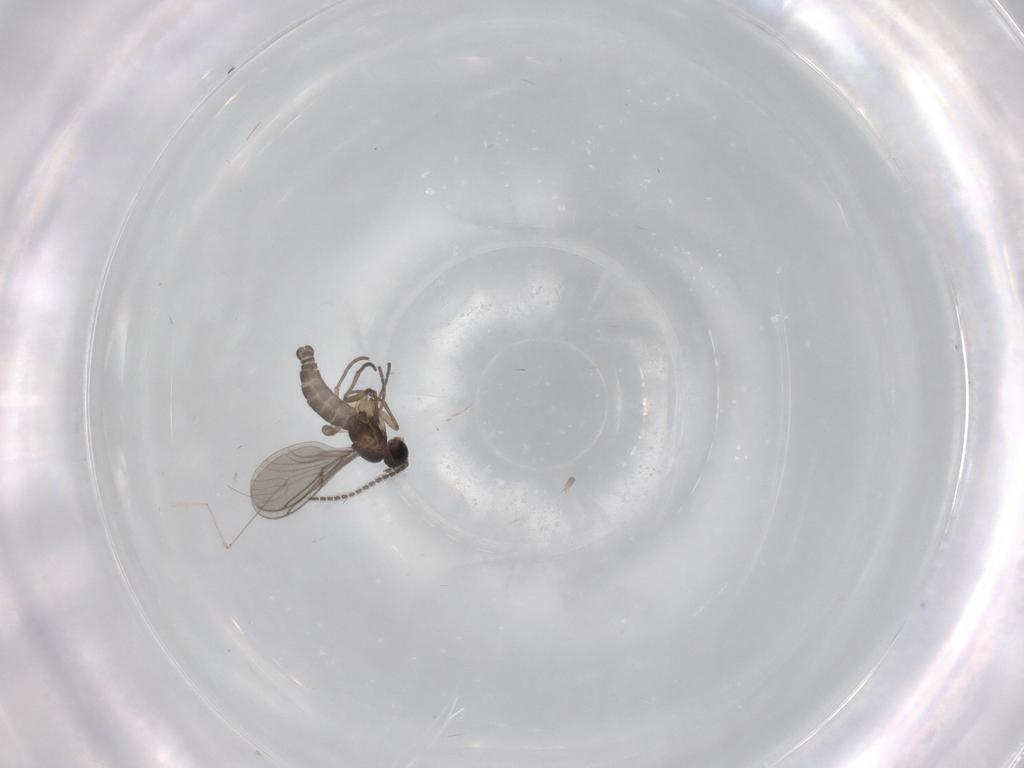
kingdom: Animalia
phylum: Arthropoda
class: Insecta
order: Diptera
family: Sciaridae
